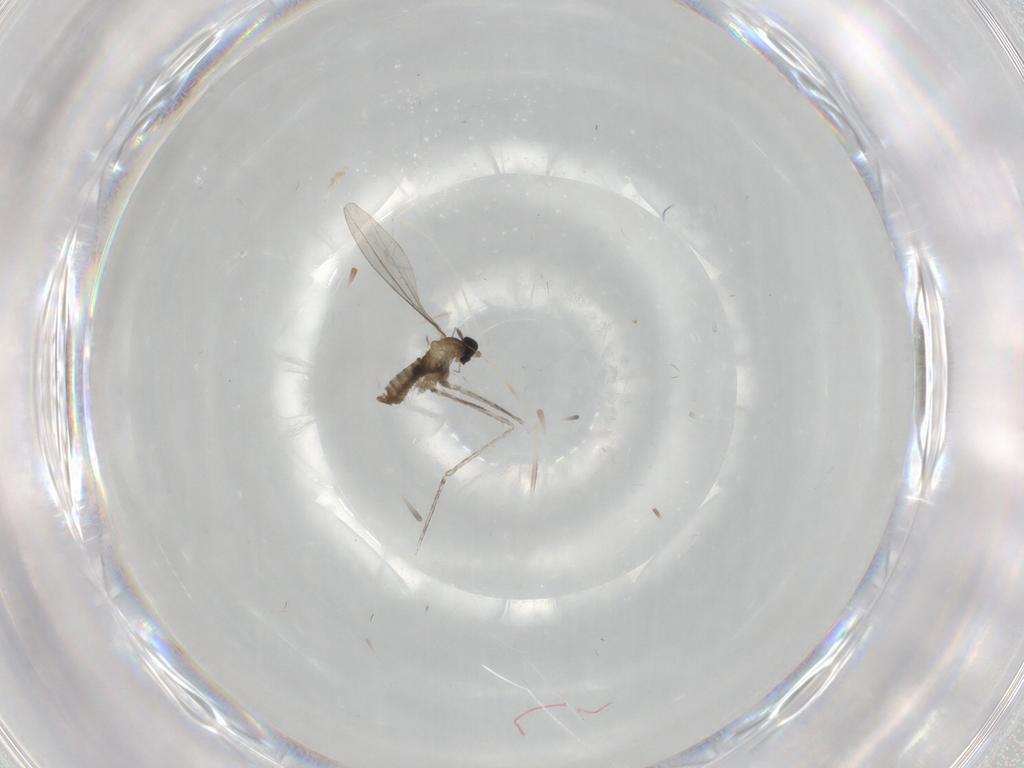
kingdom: Animalia
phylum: Arthropoda
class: Insecta
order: Diptera
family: Cecidomyiidae
